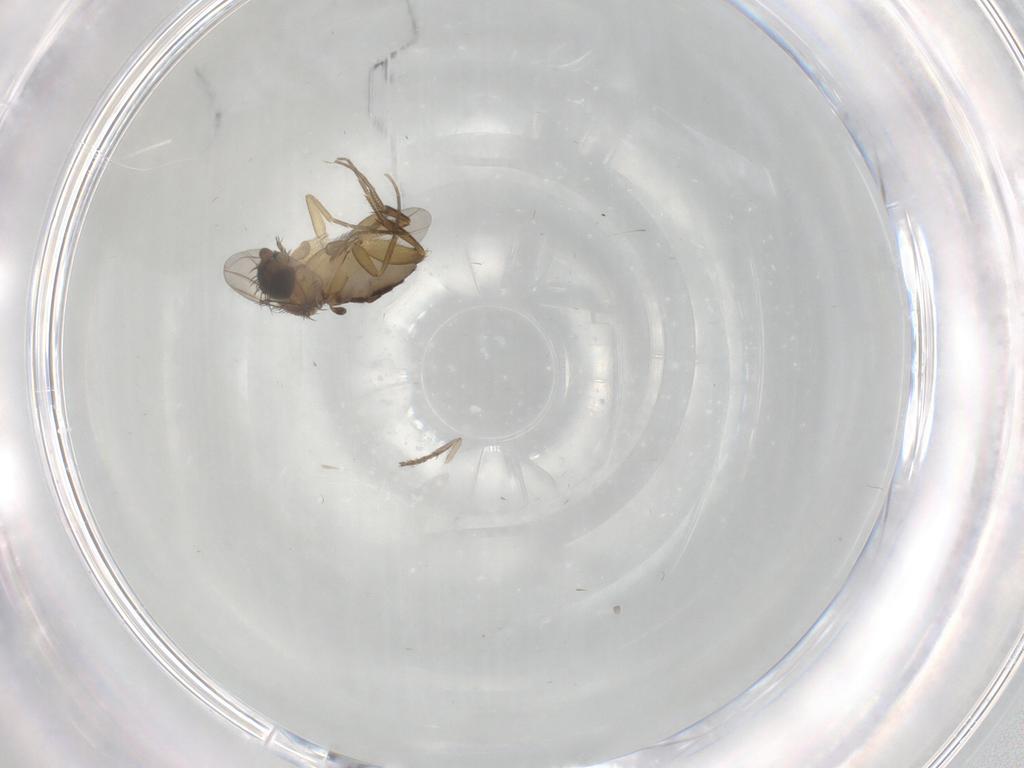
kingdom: Animalia
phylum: Arthropoda
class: Insecta
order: Diptera
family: Phoridae
